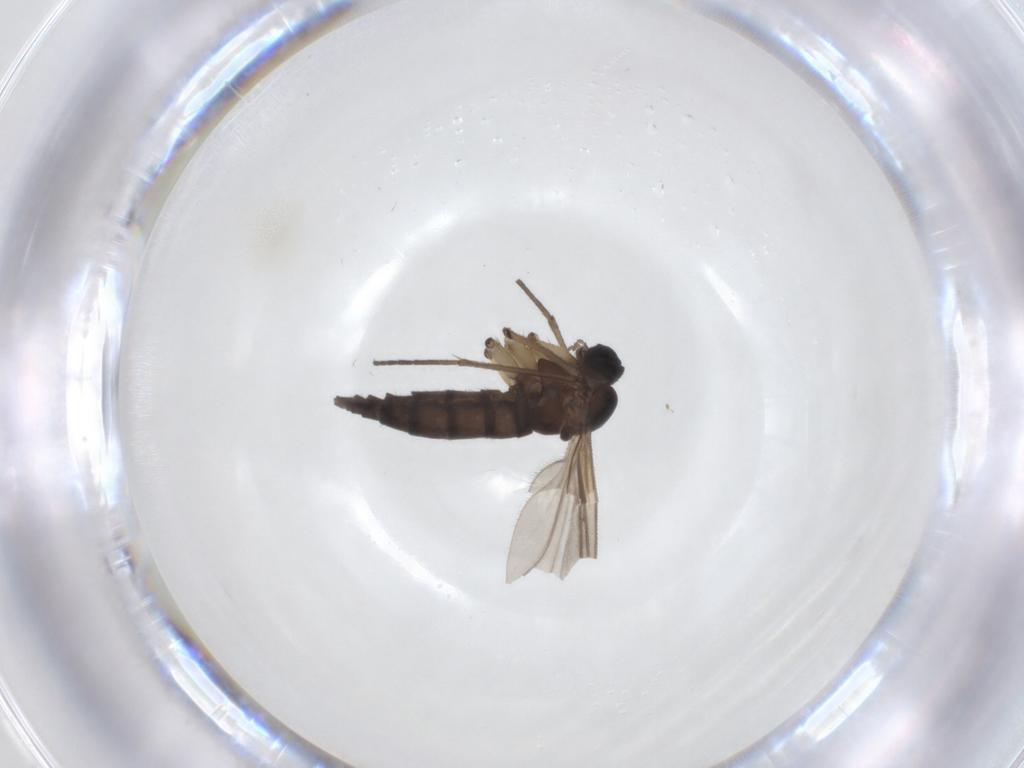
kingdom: Animalia
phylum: Arthropoda
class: Insecta
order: Diptera
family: Sciaridae
